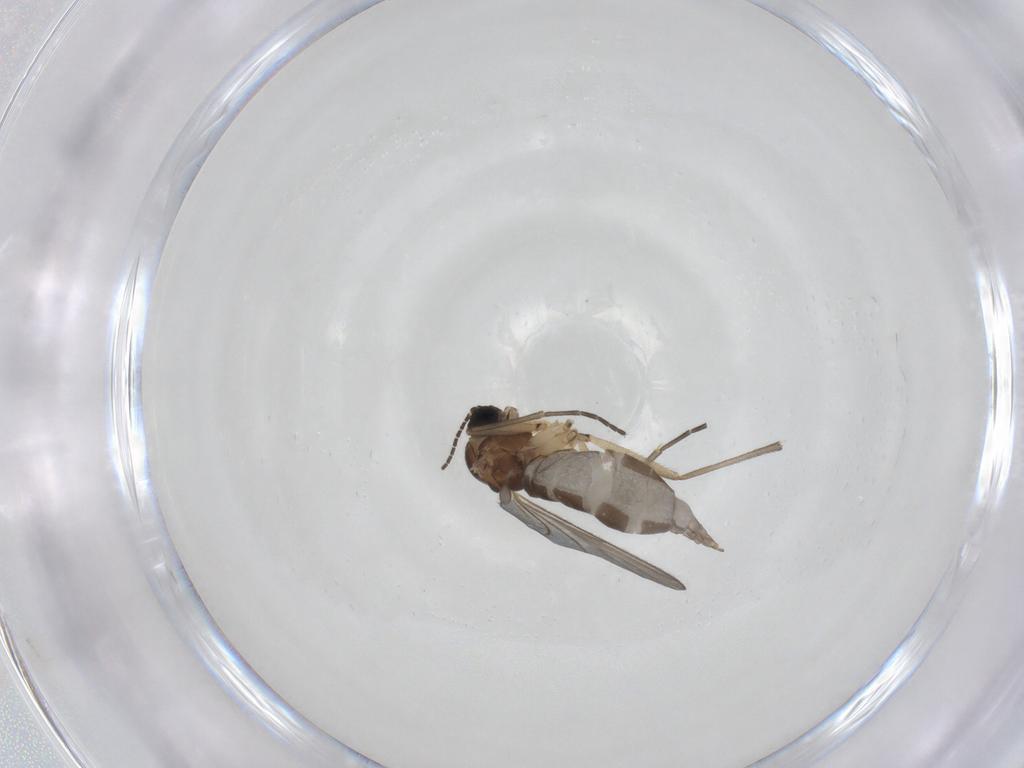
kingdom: Animalia
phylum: Arthropoda
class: Insecta
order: Diptera
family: Sciaridae
